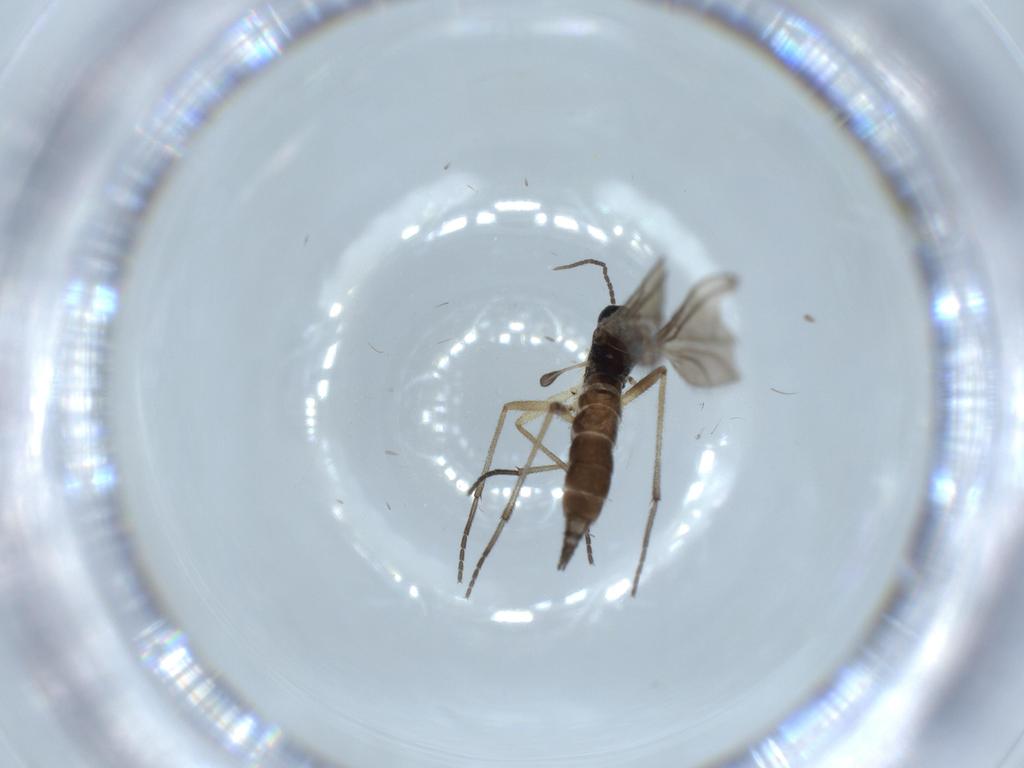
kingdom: Animalia
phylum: Arthropoda
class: Insecta
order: Diptera
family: Sciaridae
